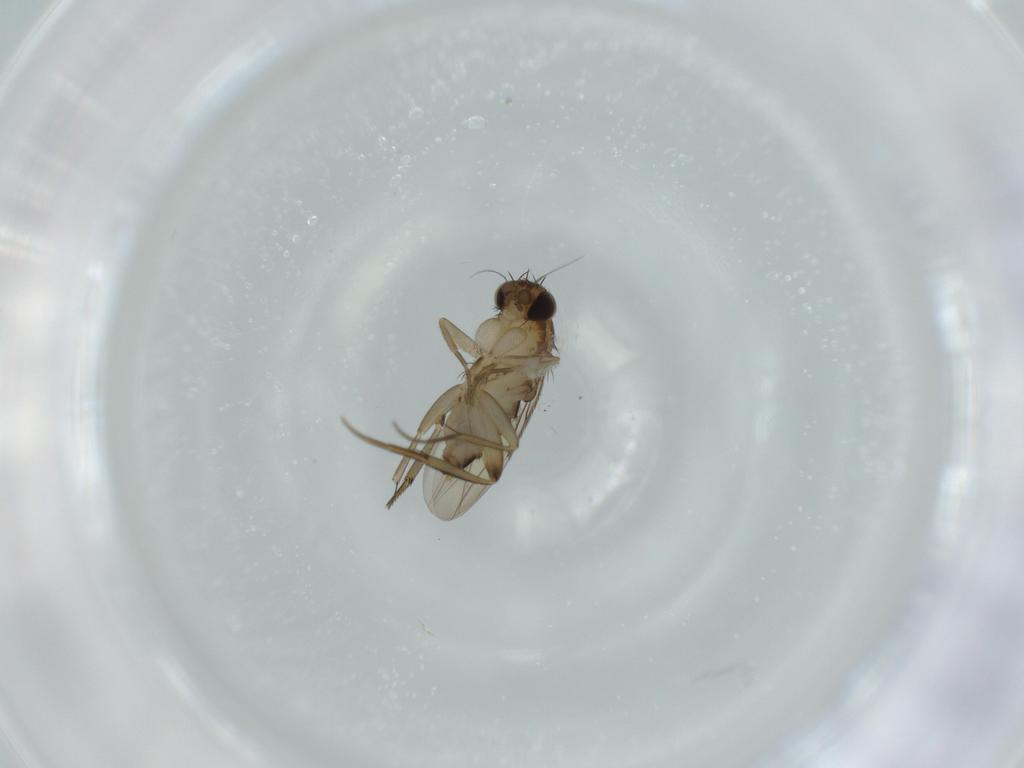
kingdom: Animalia
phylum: Arthropoda
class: Insecta
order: Diptera
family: Phoridae
